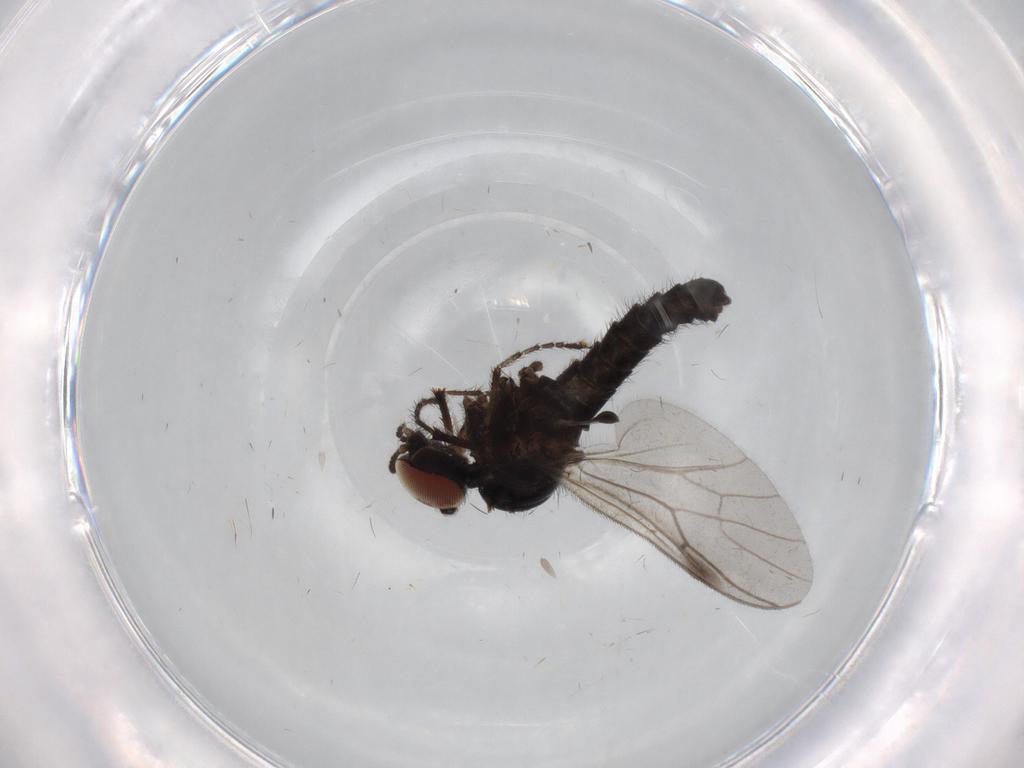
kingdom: Animalia
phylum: Arthropoda
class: Insecta
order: Diptera
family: Bibionidae
